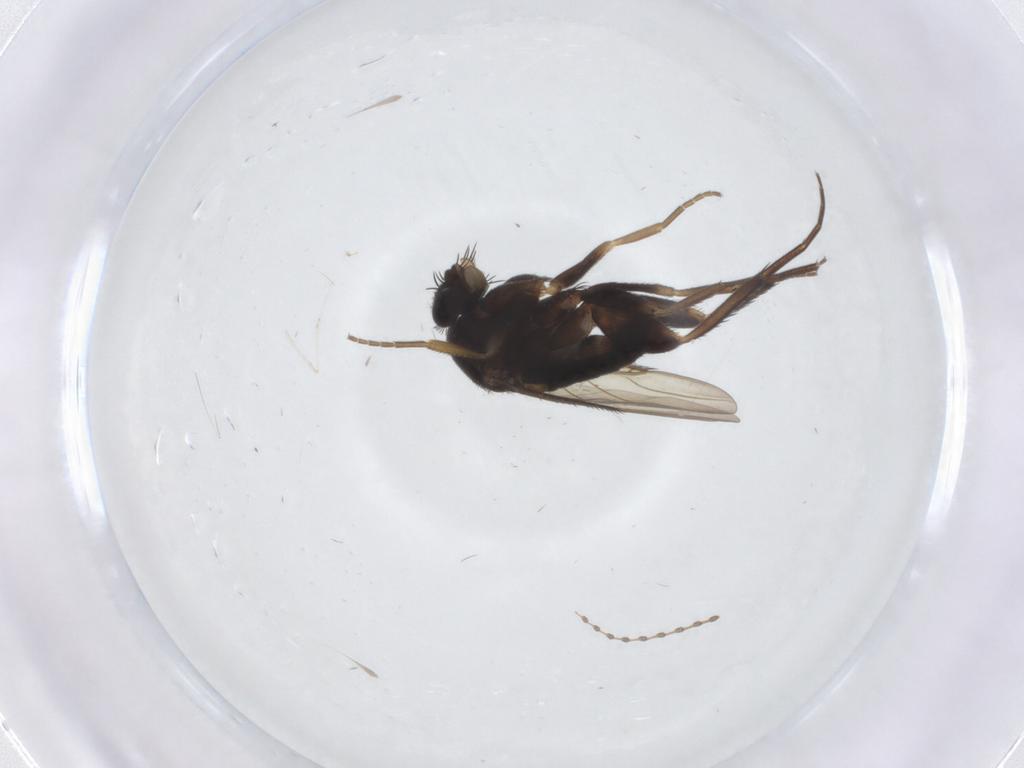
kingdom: Animalia
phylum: Arthropoda
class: Insecta
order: Diptera
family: Phoridae
